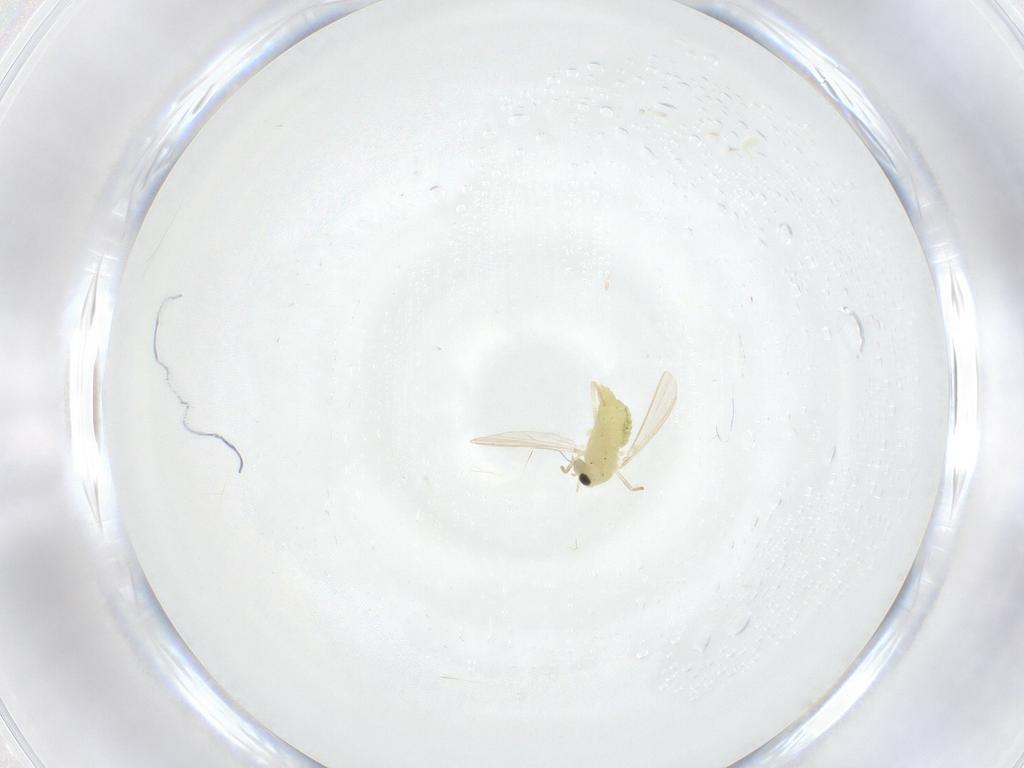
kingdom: Animalia
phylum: Arthropoda
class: Insecta
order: Diptera
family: Chironomidae
